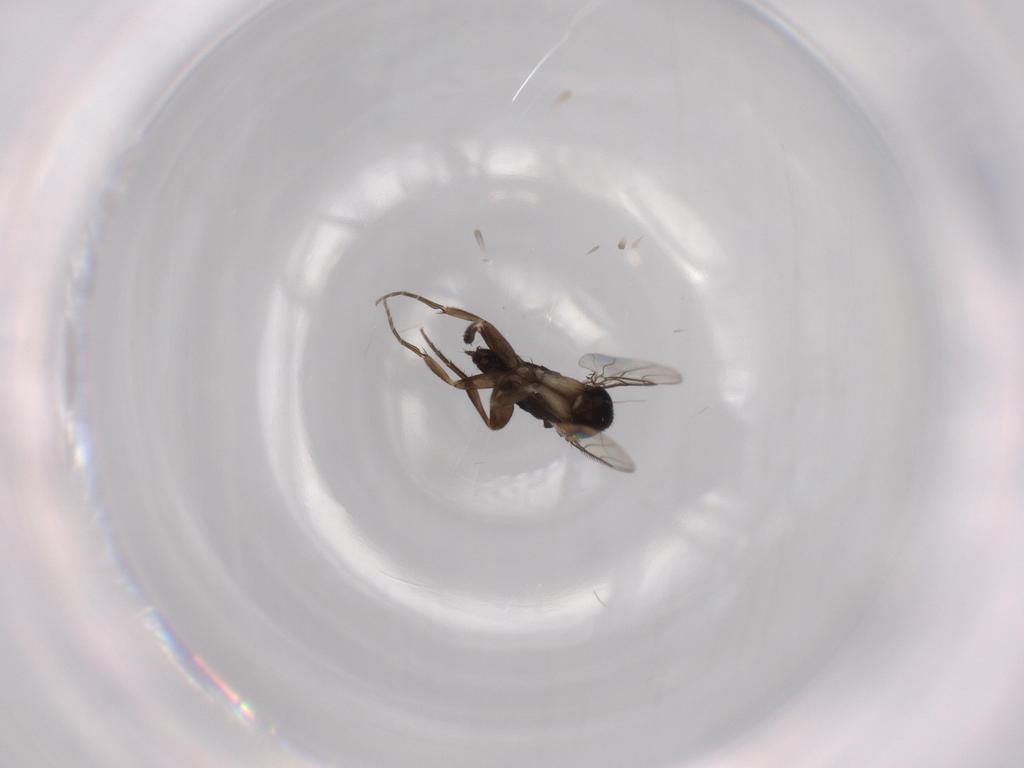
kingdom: Animalia
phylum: Arthropoda
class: Insecta
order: Diptera
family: Phoridae
